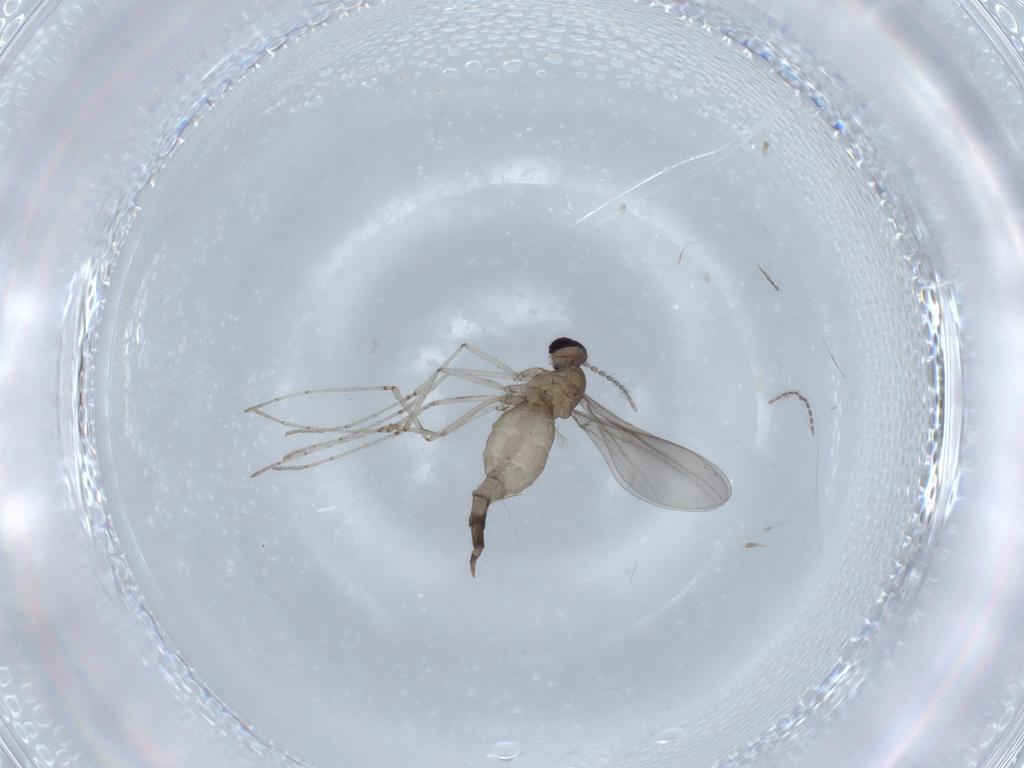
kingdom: Animalia
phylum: Arthropoda
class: Insecta
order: Diptera
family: Cecidomyiidae
